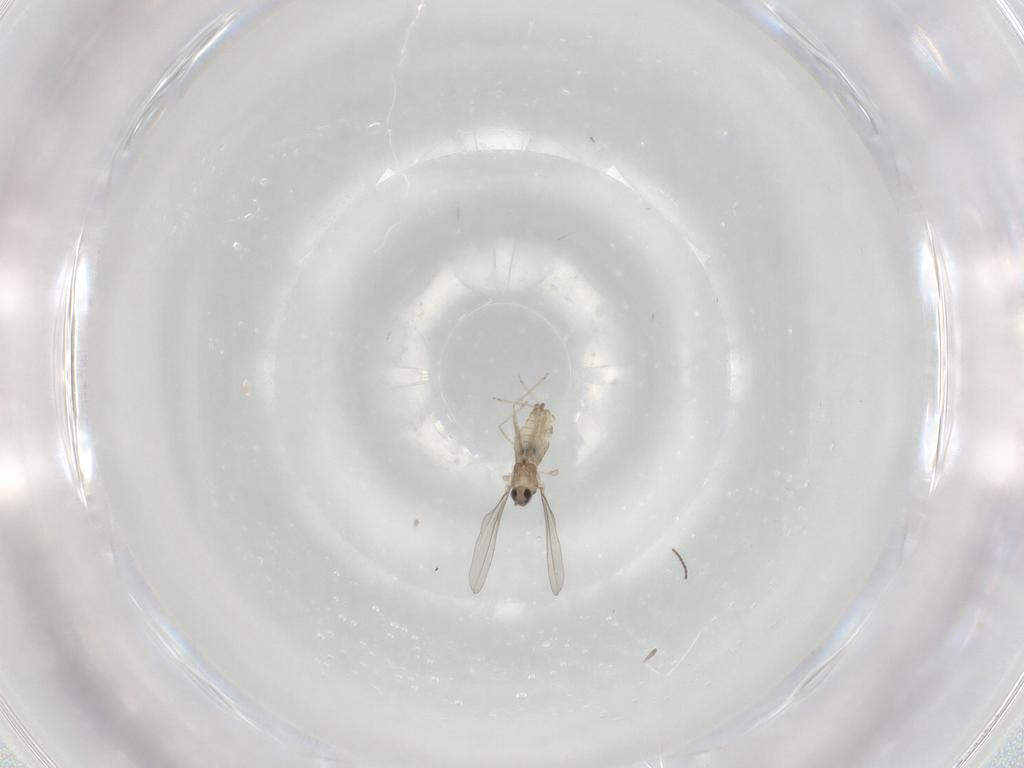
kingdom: Animalia
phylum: Arthropoda
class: Insecta
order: Diptera
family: Cecidomyiidae
